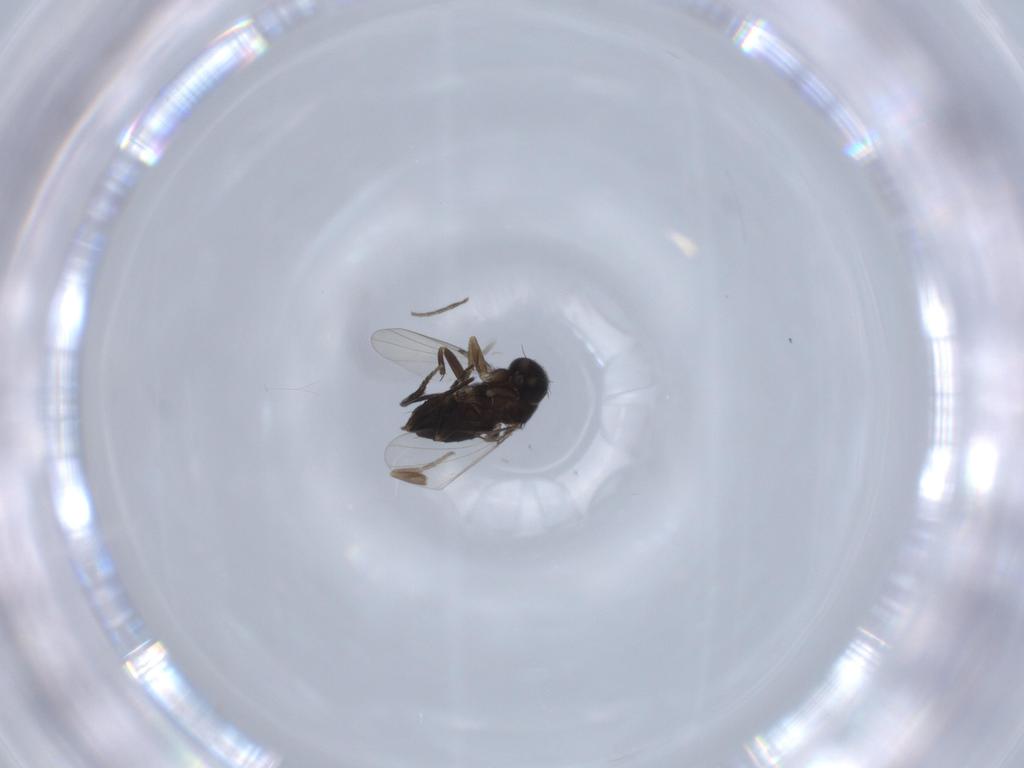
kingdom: Animalia
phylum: Arthropoda
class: Insecta
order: Diptera
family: Phoridae
